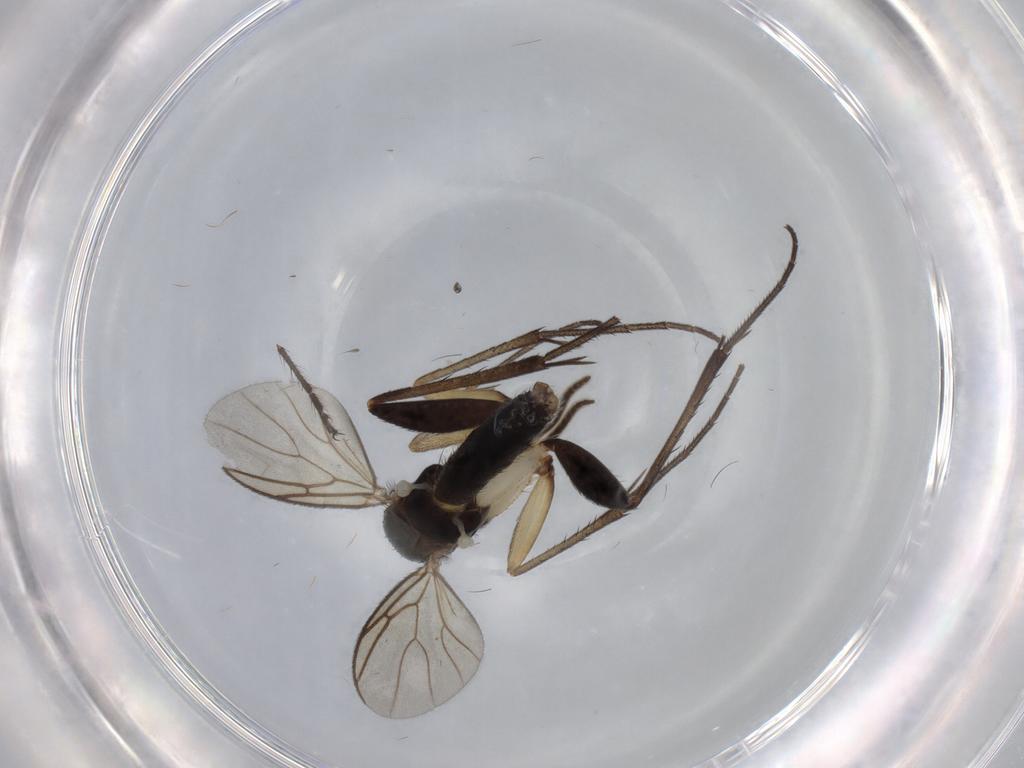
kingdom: Animalia
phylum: Arthropoda
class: Insecta
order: Diptera
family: Psychodidae
